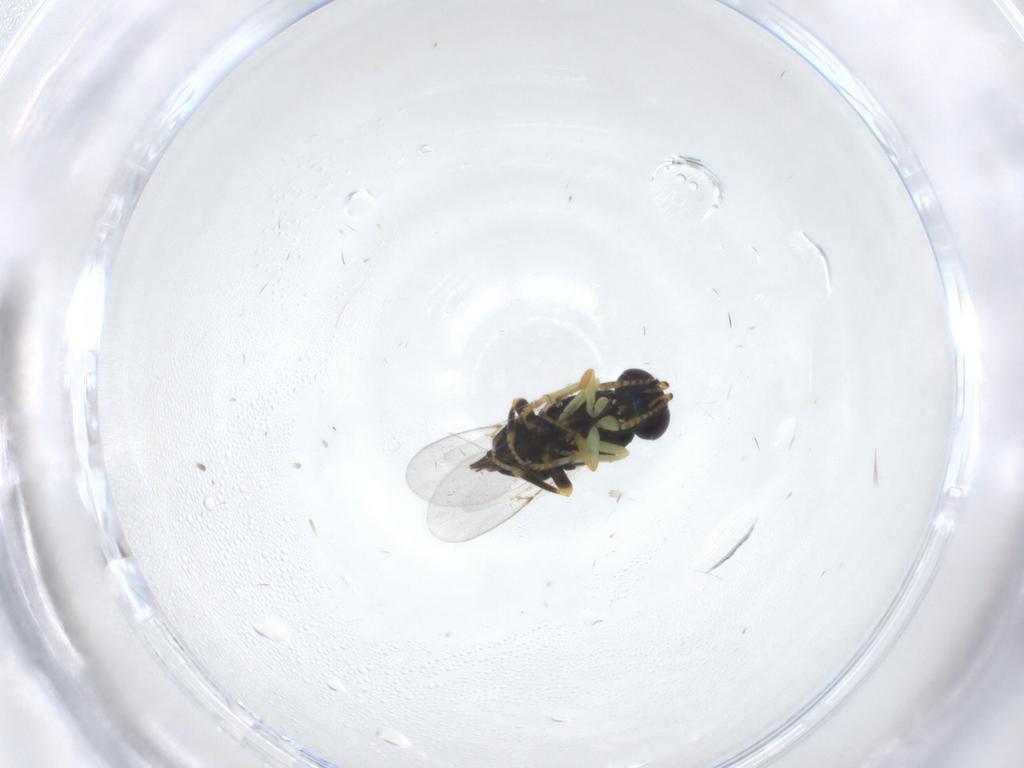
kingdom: Animalia
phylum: Arthropoda
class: Insecta
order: Hymenoptera
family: Encyrtidae
